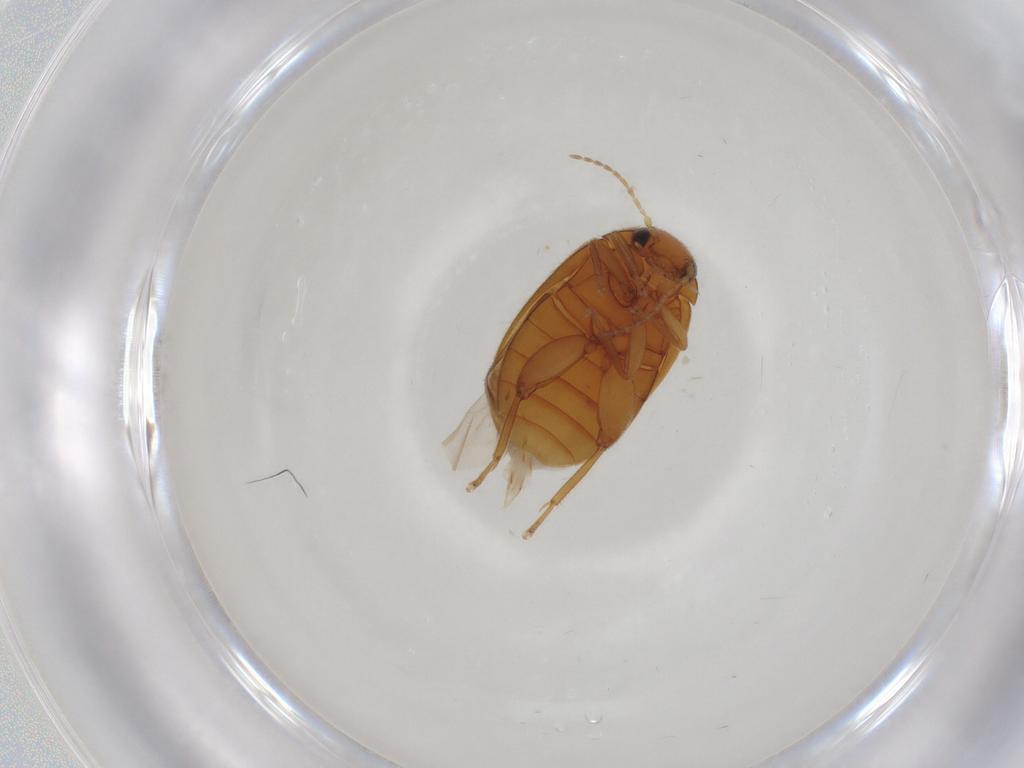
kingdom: Animalia
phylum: Arthropoda
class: Insecta
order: Coleoptera
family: Scirtidae
